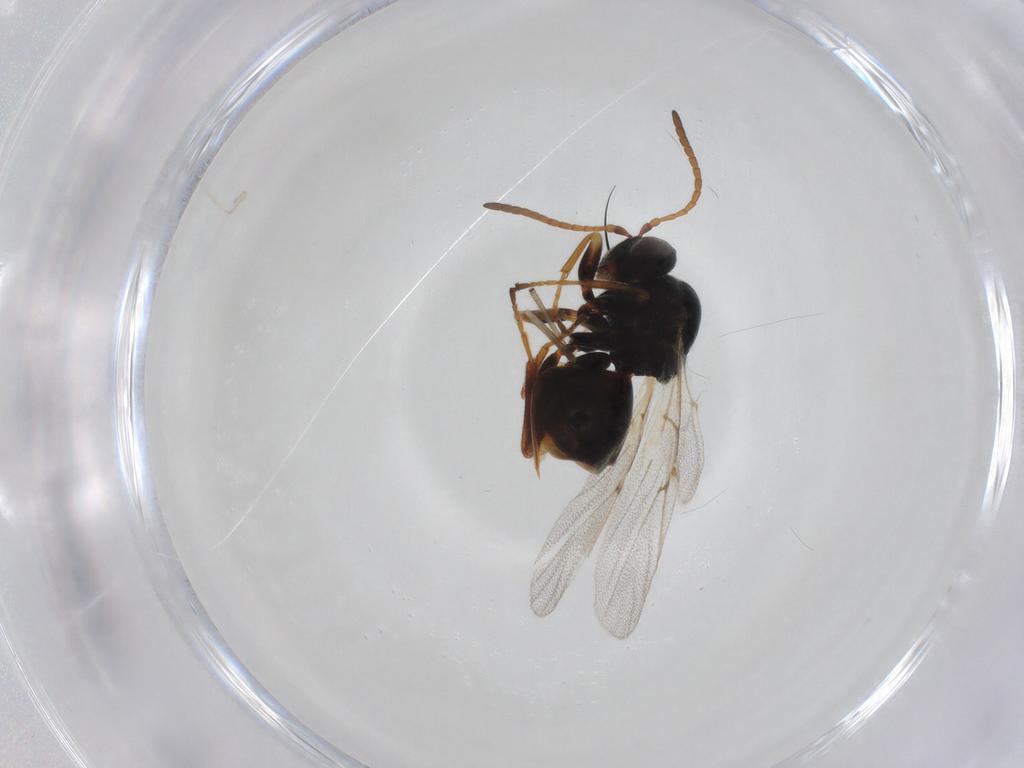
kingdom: Animalia
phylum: Arthropoda
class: Insecta
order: Hymenoptera
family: Cynipidae
